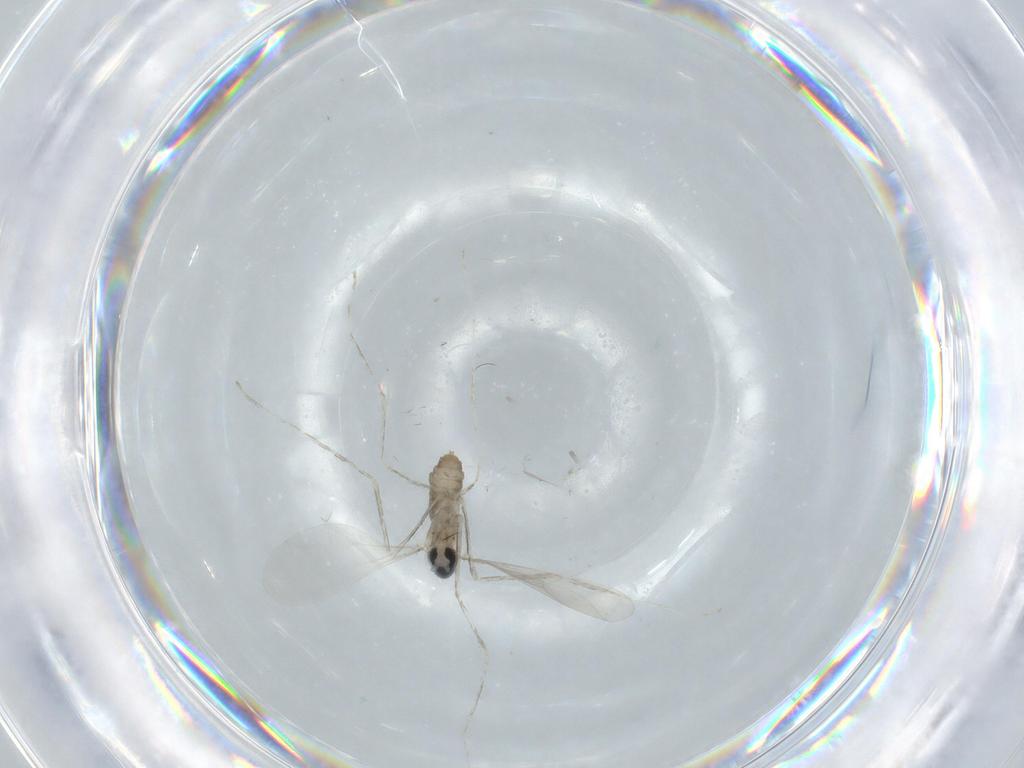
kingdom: Animalia
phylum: Arthropoda
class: Insecta
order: Diptera
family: Cecidomyiidae
